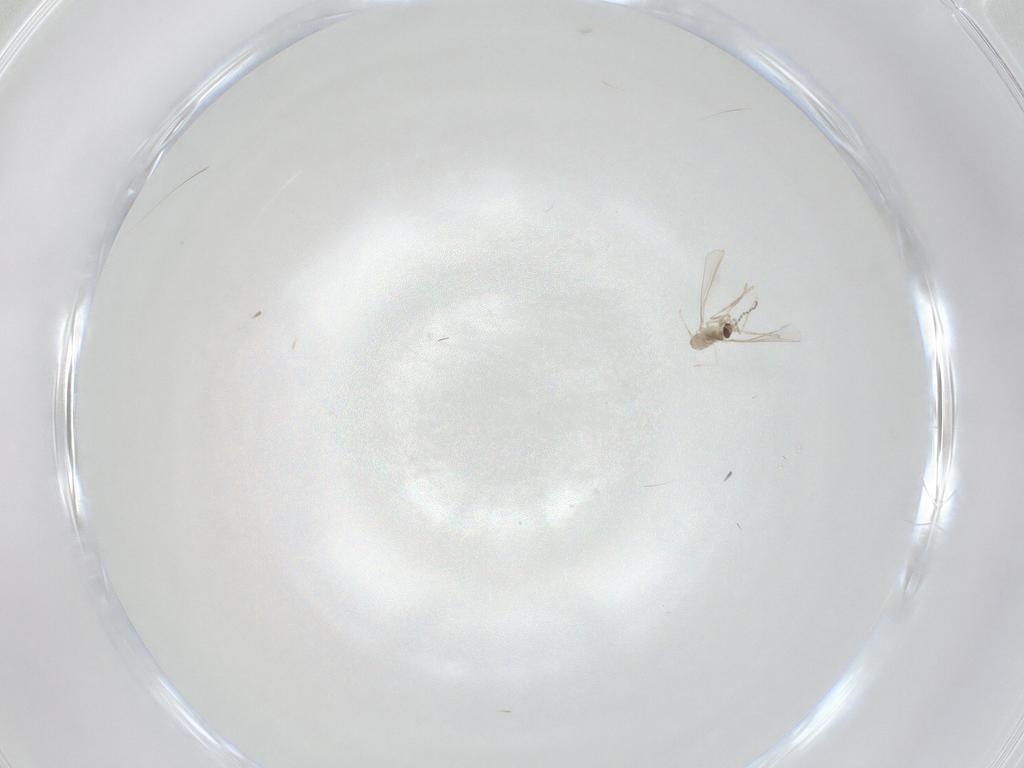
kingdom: Animalia
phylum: Arthropoda
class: Insecta
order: Diptera
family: Cecidomyiidae
